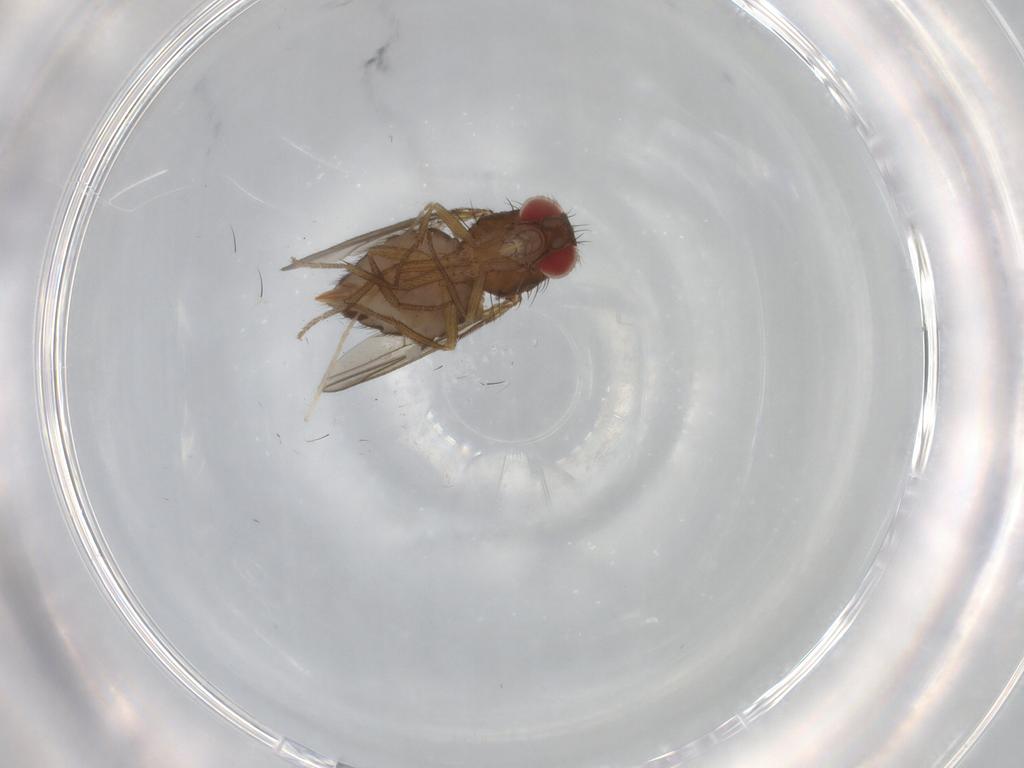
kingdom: Animalia
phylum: Arthropoda
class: Insecta
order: Diptera
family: Drosophilidae
